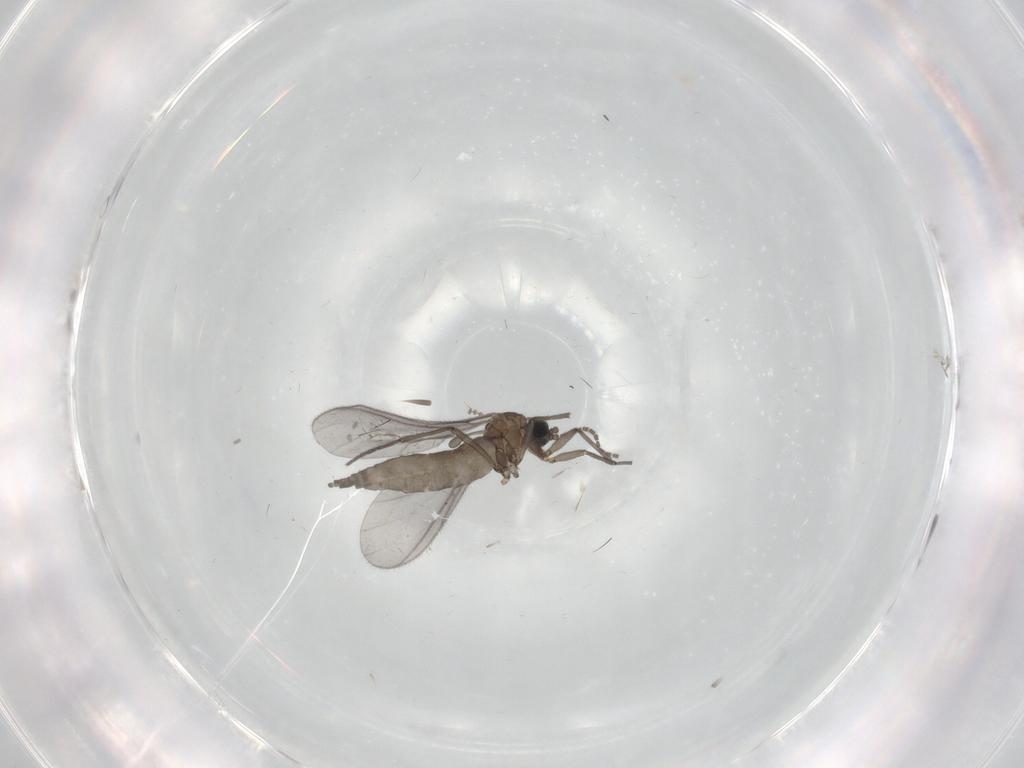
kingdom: Animalia
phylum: Arthropoda
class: Insecta
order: Diptera
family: Sciaridae
